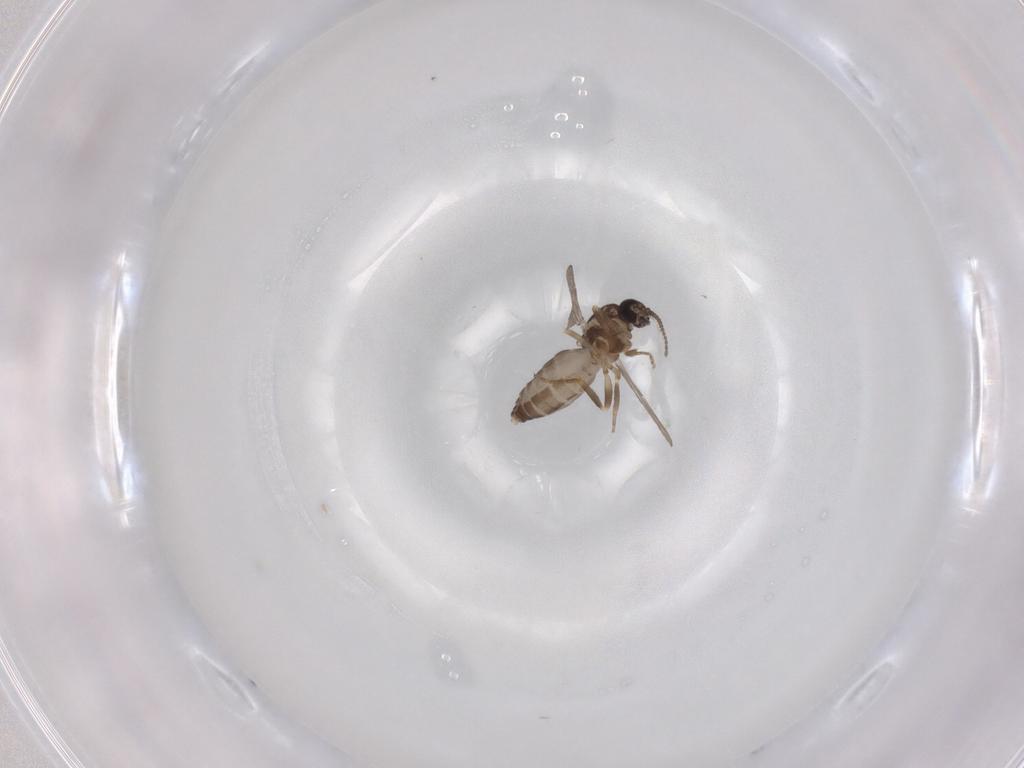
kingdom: Animalia
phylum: Arthropoda
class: Insecta
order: Diptera
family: Ceratopogonidae
